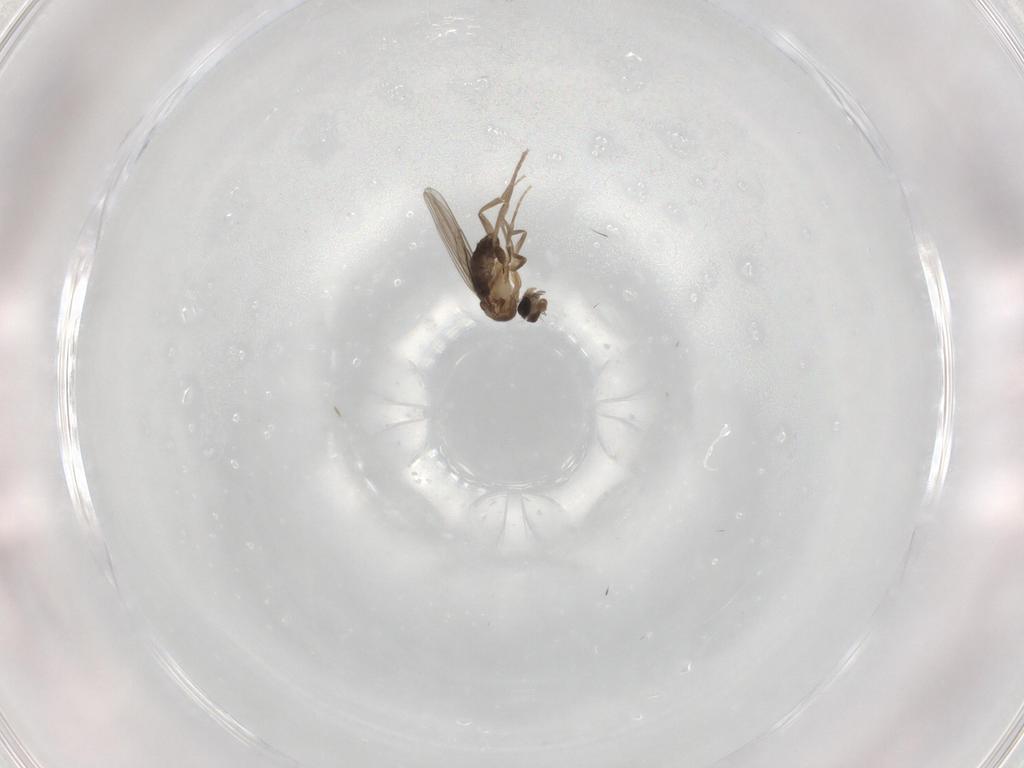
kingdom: Animalia
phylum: Arthropoda
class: Insecta
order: Diptera
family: Phoridae
